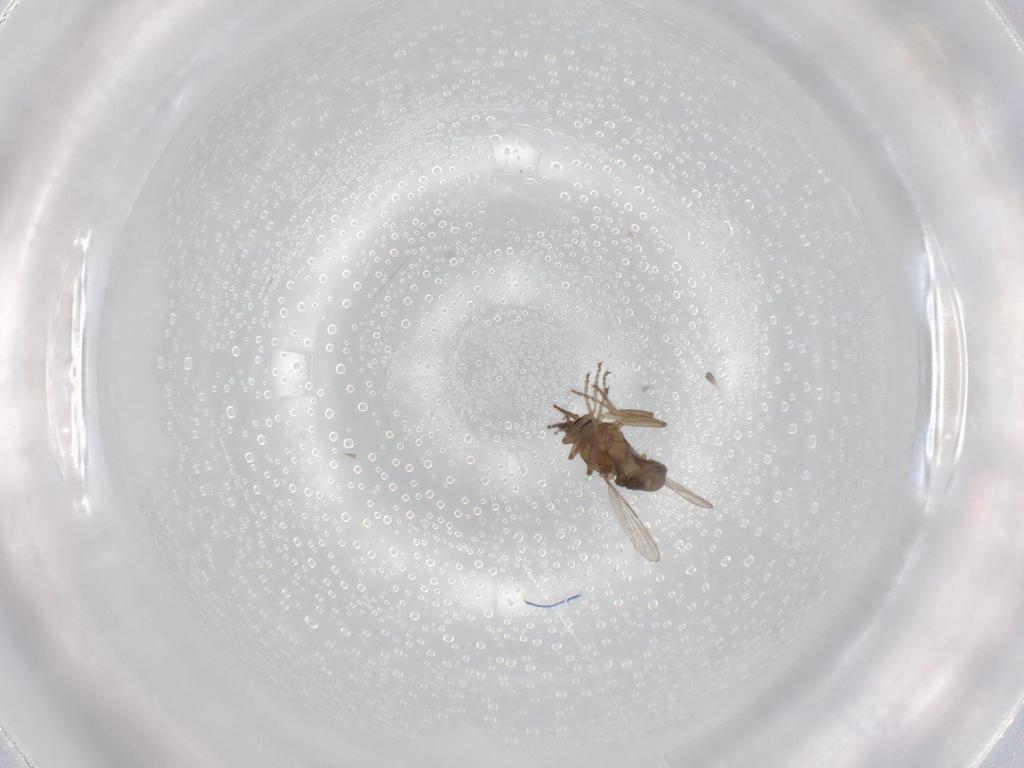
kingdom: Animalia
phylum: Arthropoda
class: Insecta
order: Diptera
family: Ceratopogonidae
